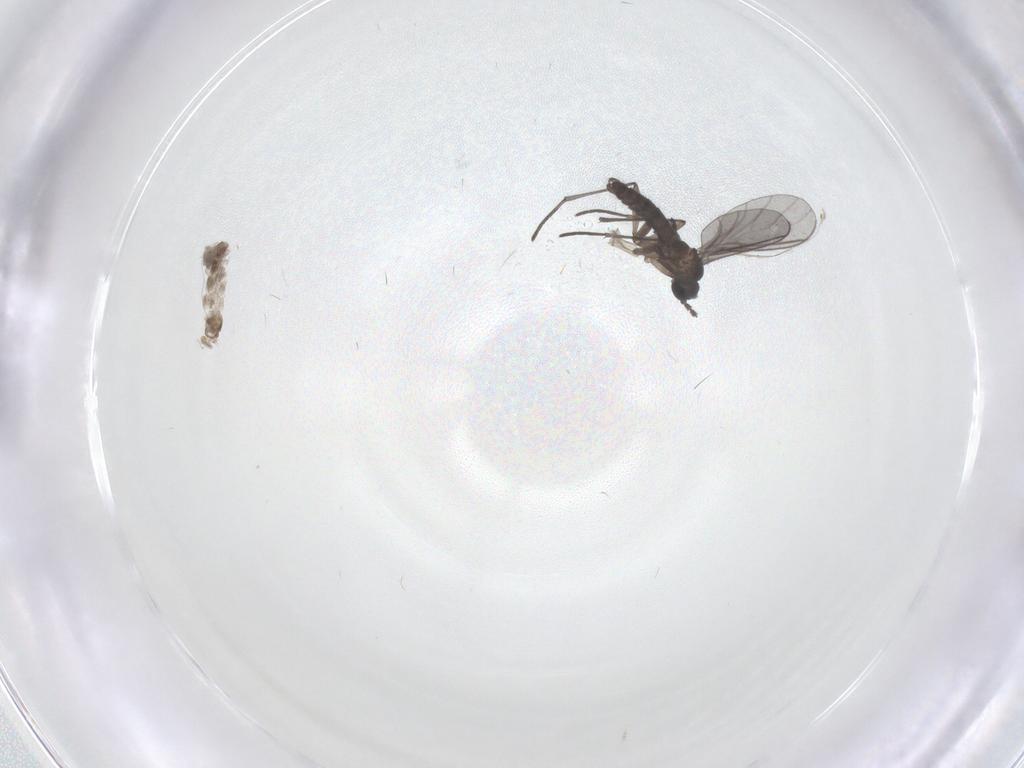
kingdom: Animalia
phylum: Arthropoda
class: Insecta
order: Diptera
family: Cecidomyiidae
